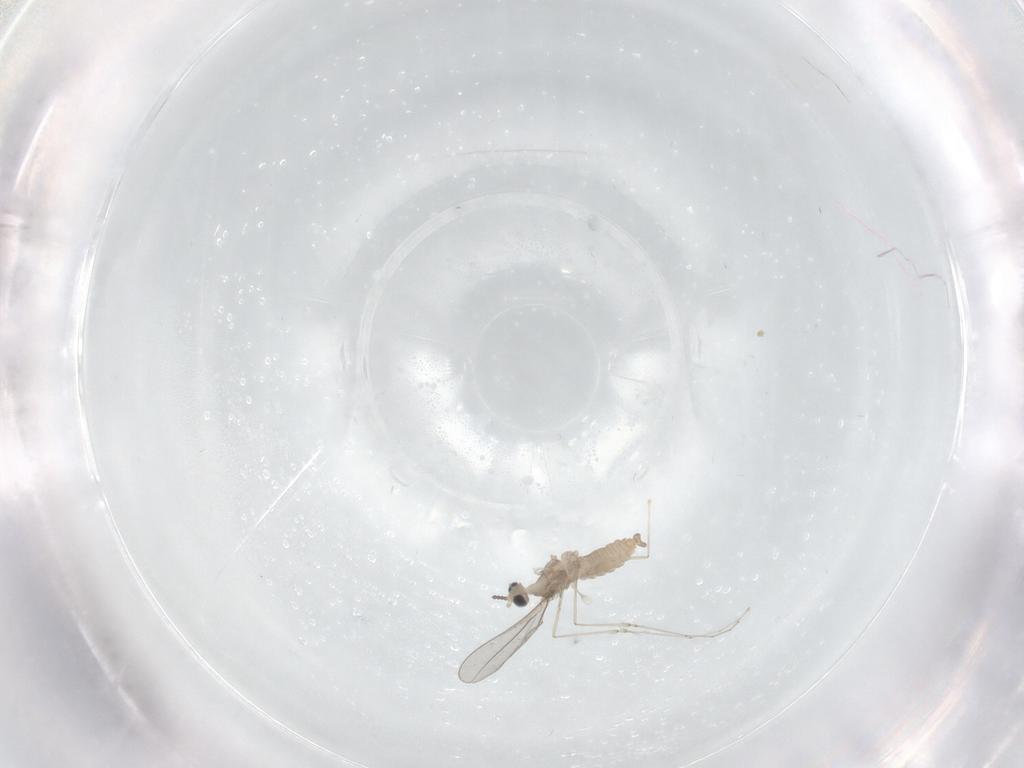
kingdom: Animalia
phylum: Arthropoda
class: Insecta
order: Diptera
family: Cecidomyiidae
